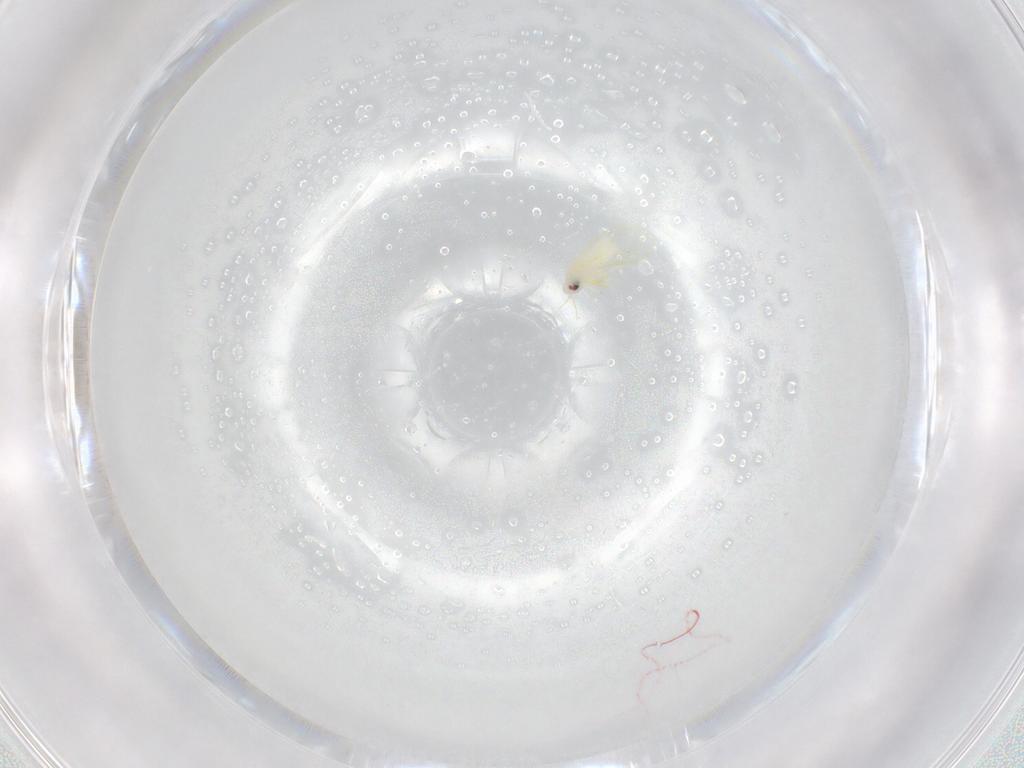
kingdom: Animalia
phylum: Arthropoda
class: Insecta
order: Hemiptera
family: Aleyrodidae
